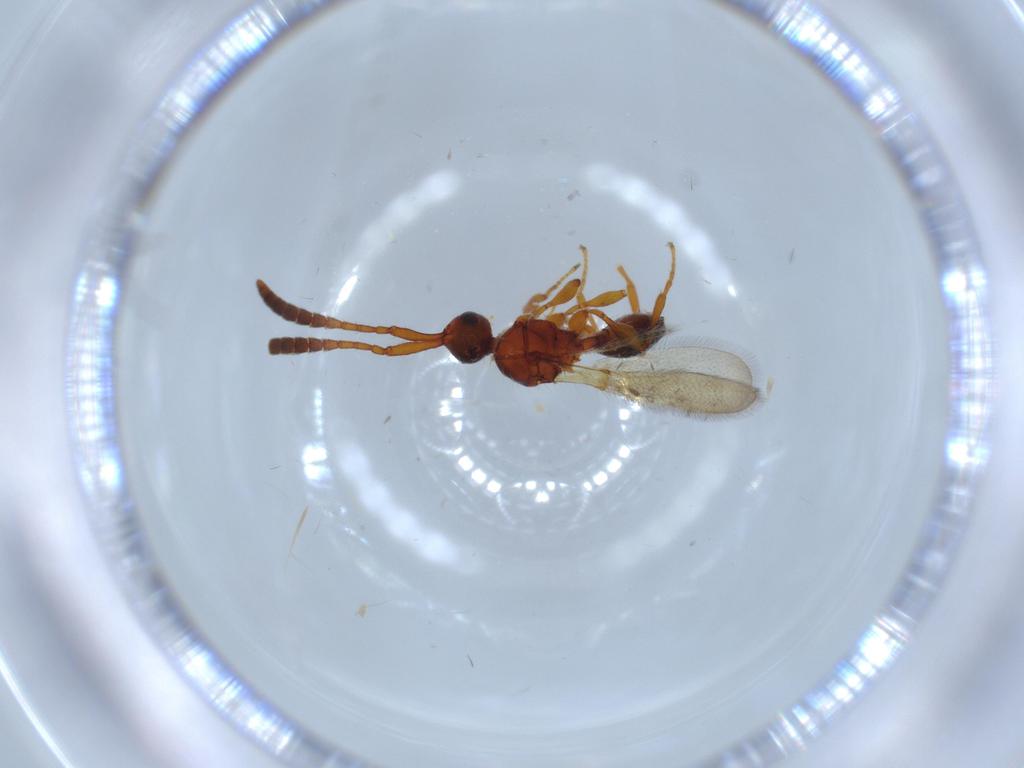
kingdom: Animalia
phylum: Arthropoda
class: Insecta
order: Hymenoptera
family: Diapriidae
